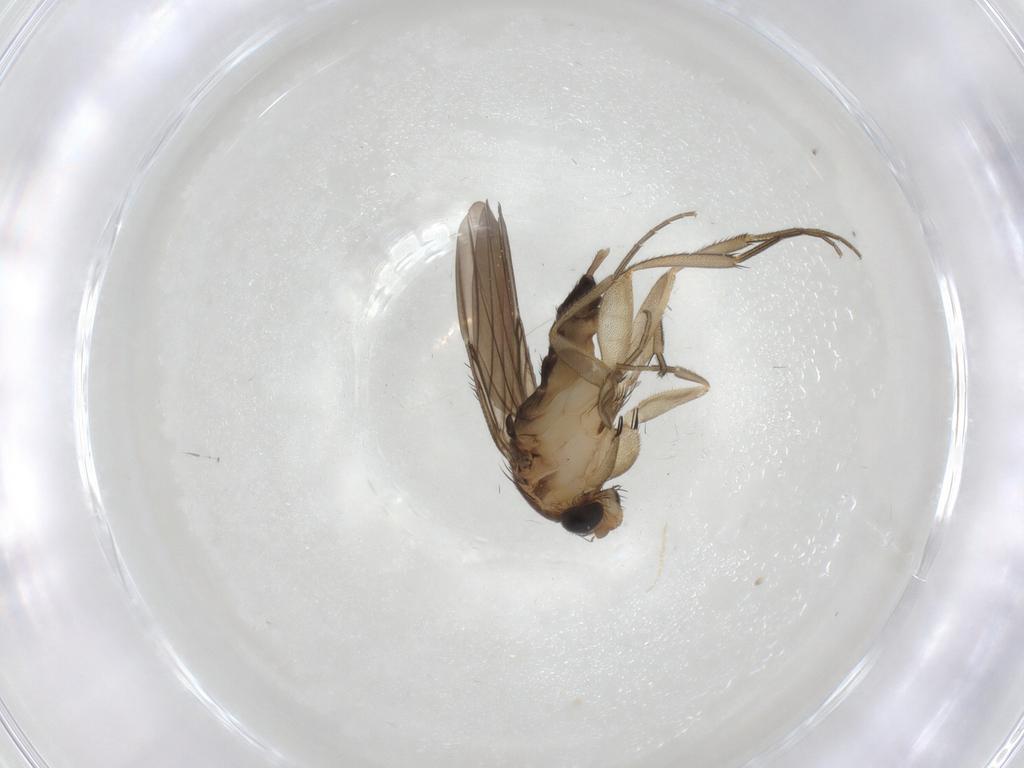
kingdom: Animalia
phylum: Arthropoda
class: Insecta
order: Diptera
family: Phoridae
